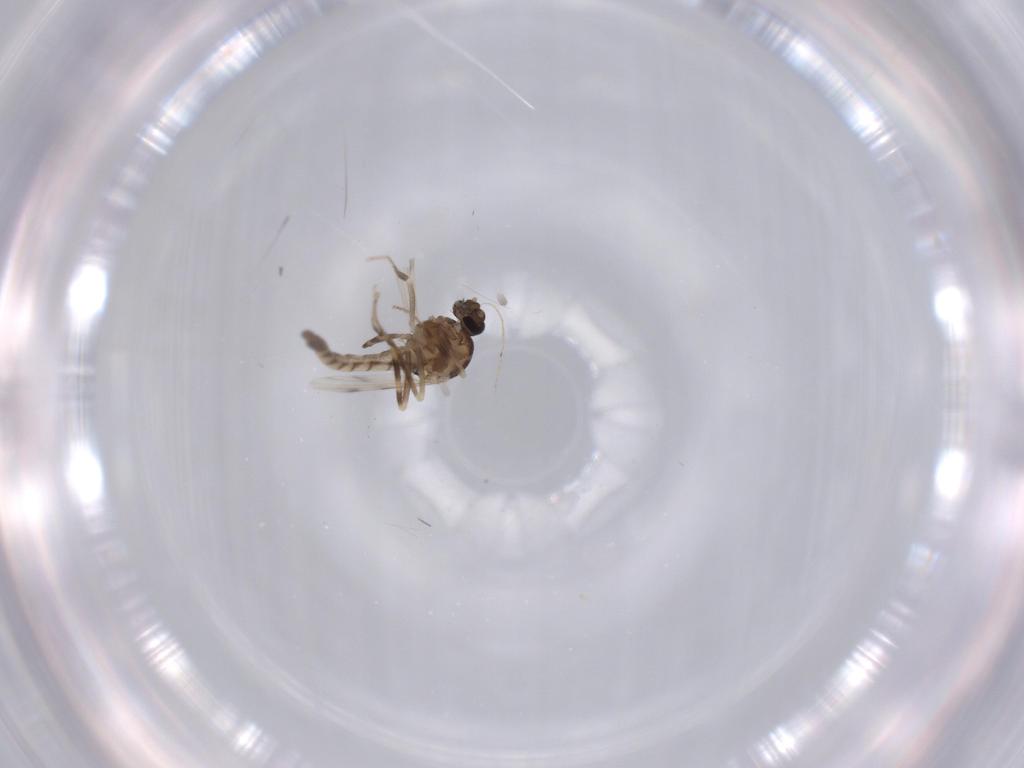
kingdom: Animalia
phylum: Arthropoda
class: Insecta
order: Diptera
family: Ceratopogonidae
